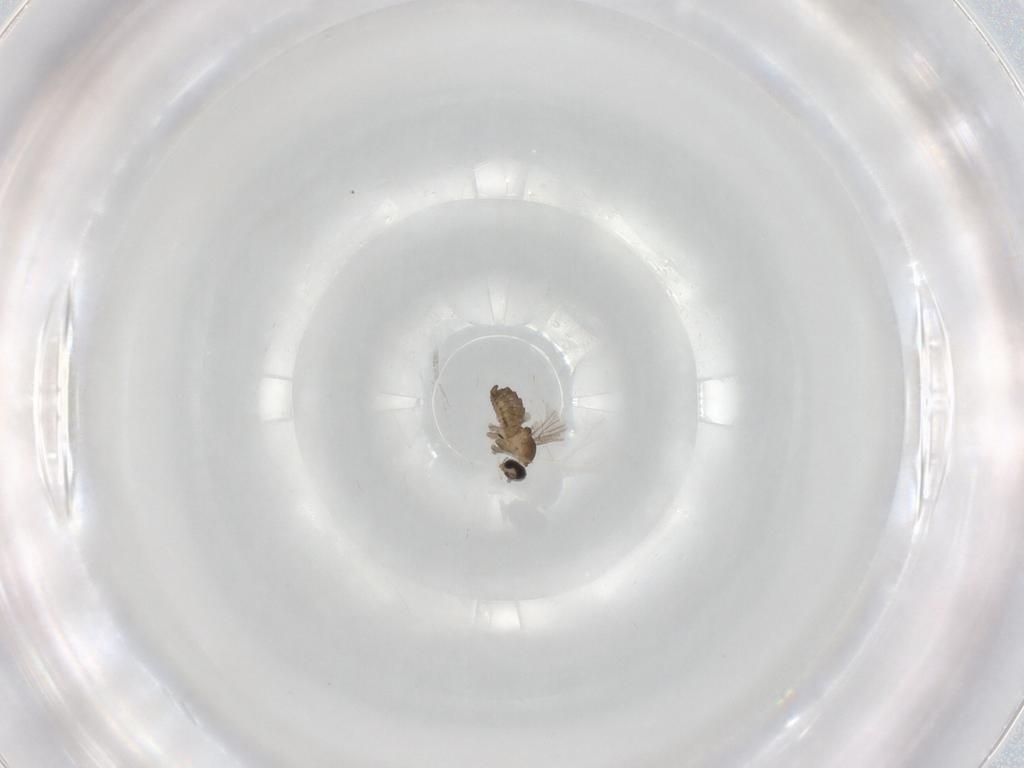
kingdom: Animalia
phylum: Arthropoda
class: Insecta
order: Diptera
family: Cecidomyiidae
